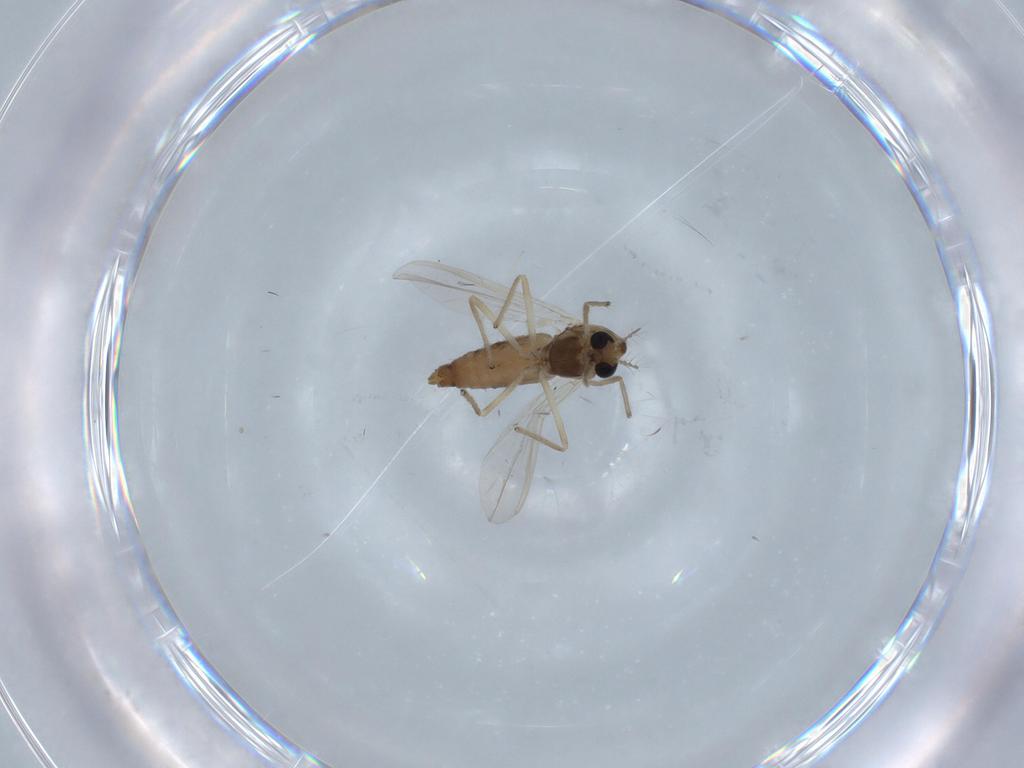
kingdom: Animalia
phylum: Arthropoda
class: Insecta
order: Diptera
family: Chironomidae
